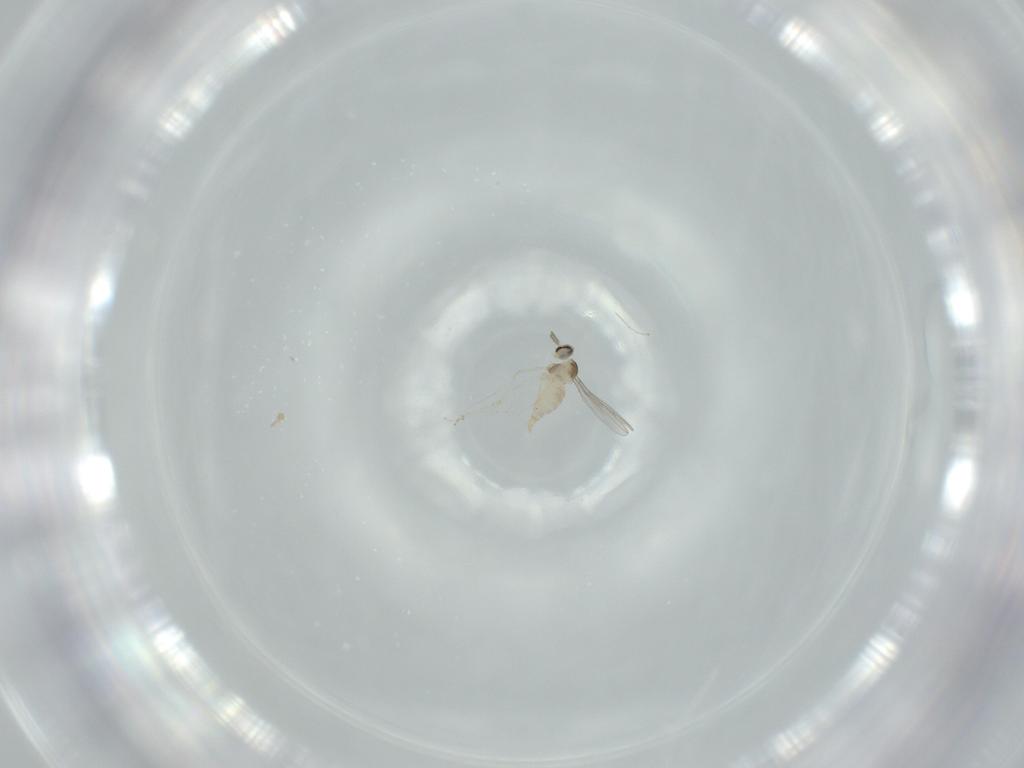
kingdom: Animalia
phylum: Arthropoda
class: Insecta
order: Diptera
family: Cecidomyiidae
